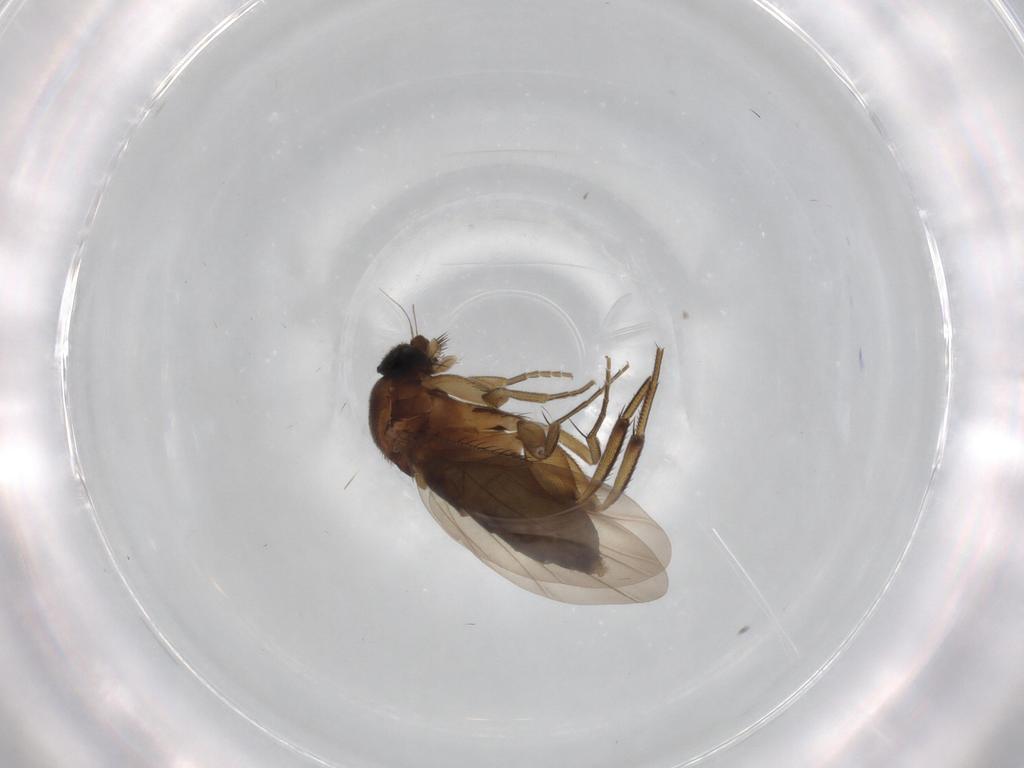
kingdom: Animalia
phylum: Arthropoda
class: Insecta
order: Diptera
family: Phoridae
